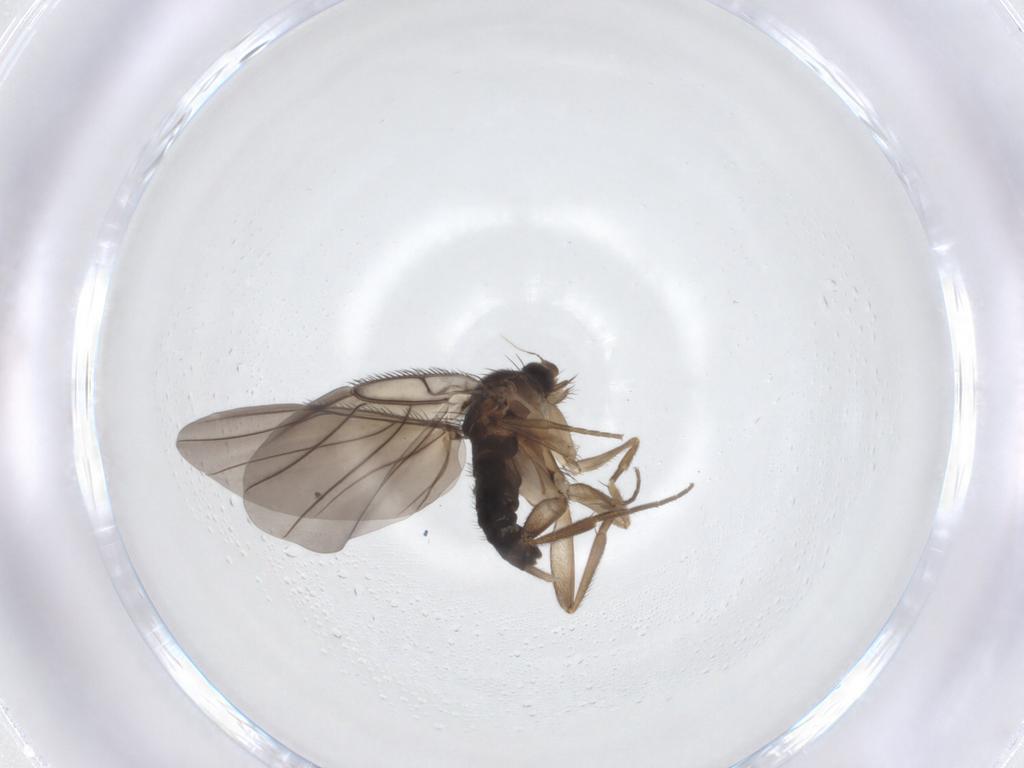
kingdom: Animalia
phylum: Arthropoda
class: Insecta
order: Diptera
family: Phoridae
